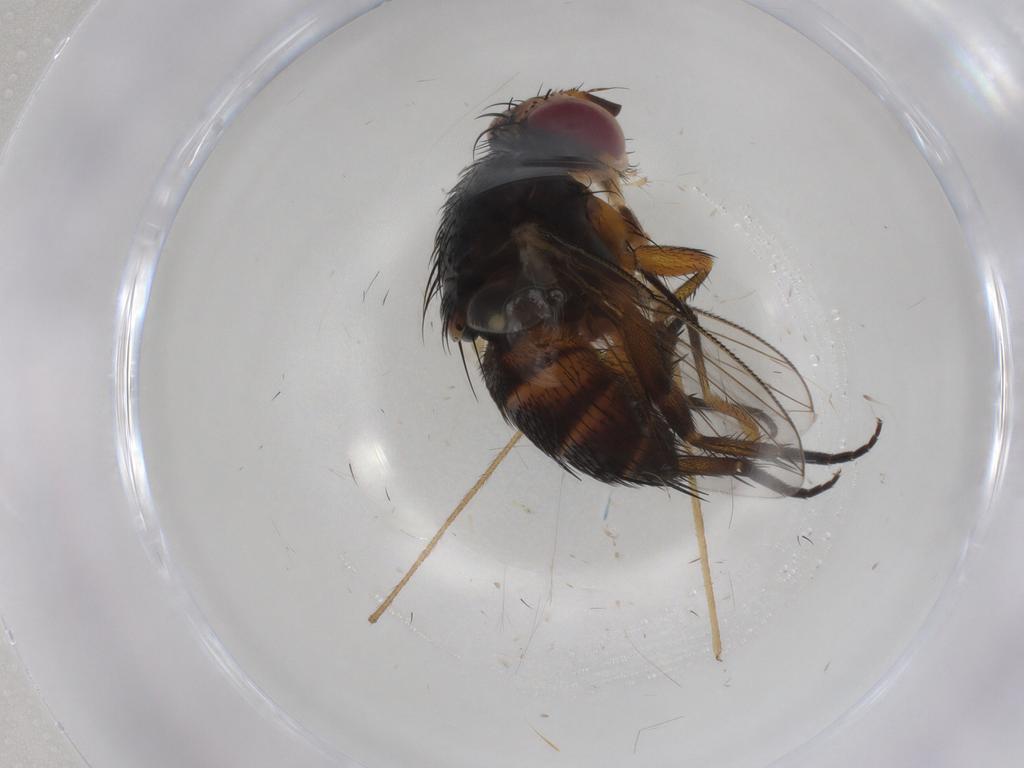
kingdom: Animalia
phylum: Arthropoda
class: Insecta
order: Diptera
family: Limoniidae
